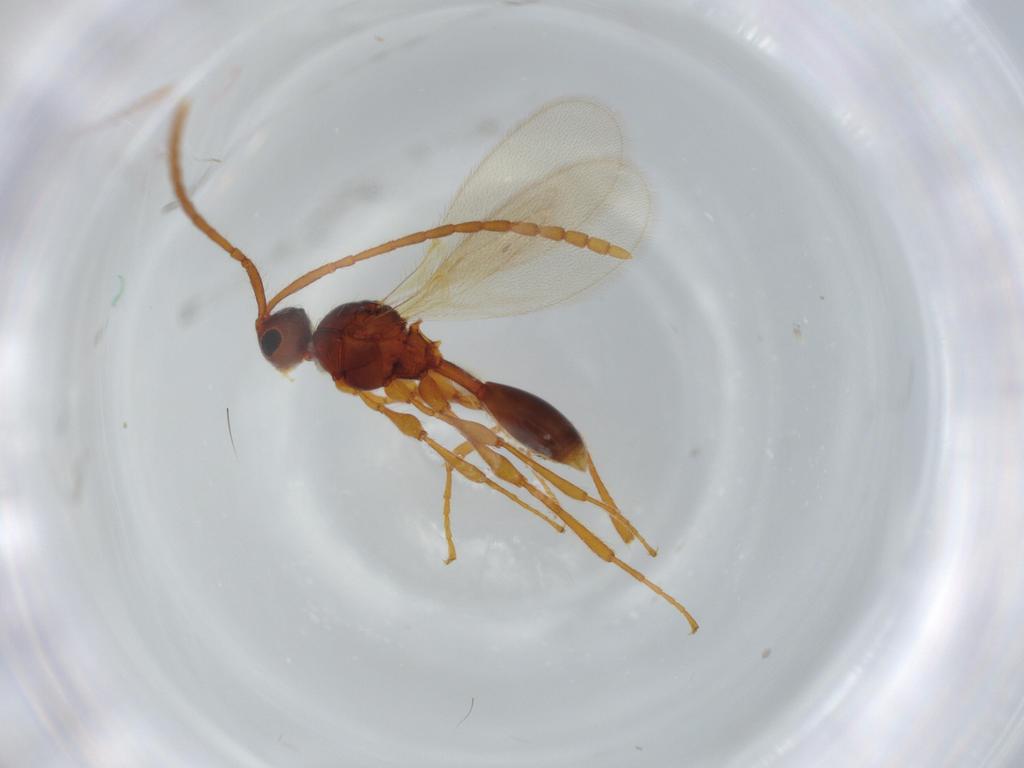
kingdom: Animalia
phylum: Arthropoda
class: Insecta
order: Hymenoptera
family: Diapriidae
